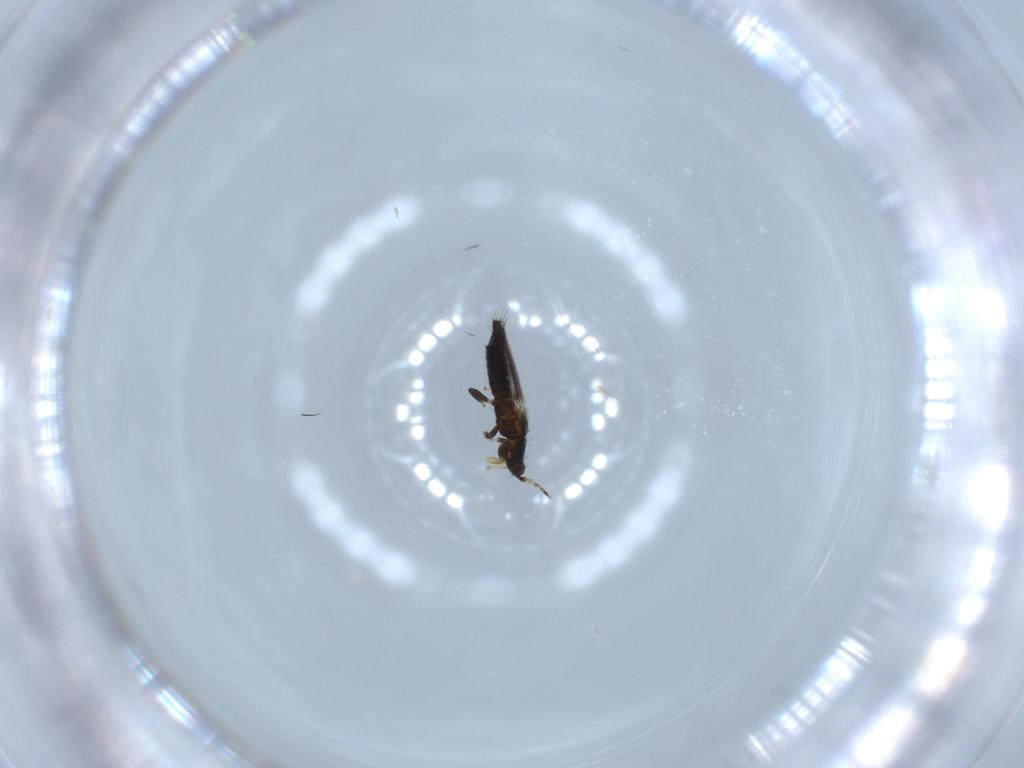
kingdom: Animalia
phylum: Arthropoda
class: Insecta
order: Thysanoptera
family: Thripidae
